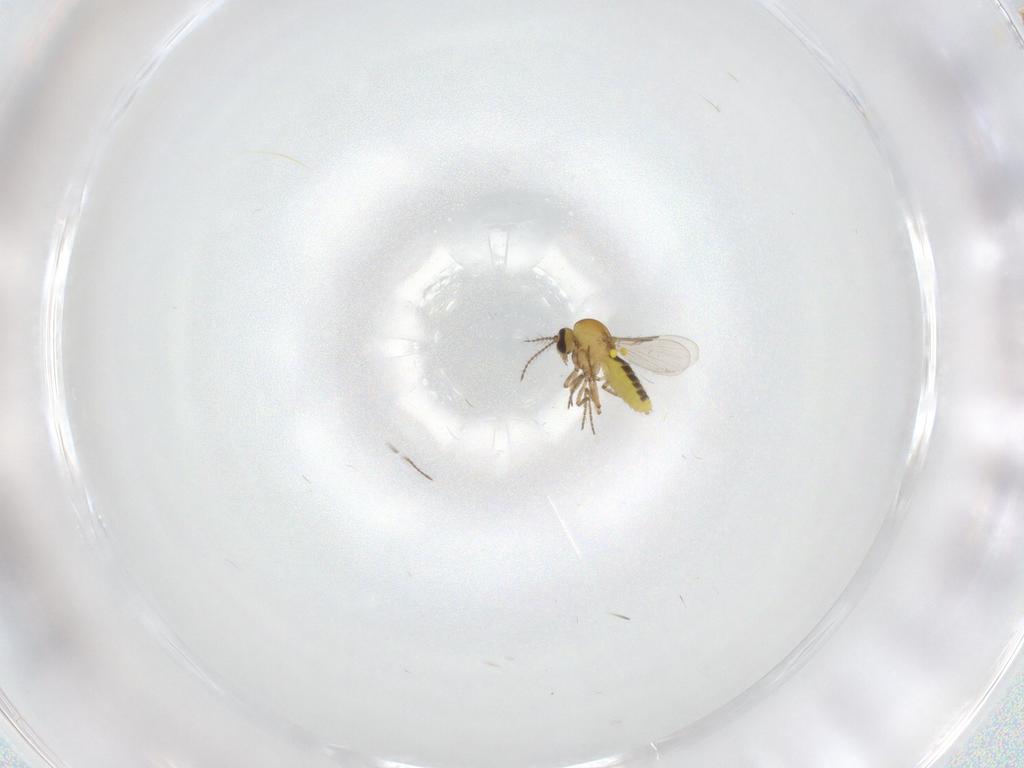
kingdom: Animalia
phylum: Arthropoda
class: Insecta
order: Diptera
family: Ceratopogonidae
